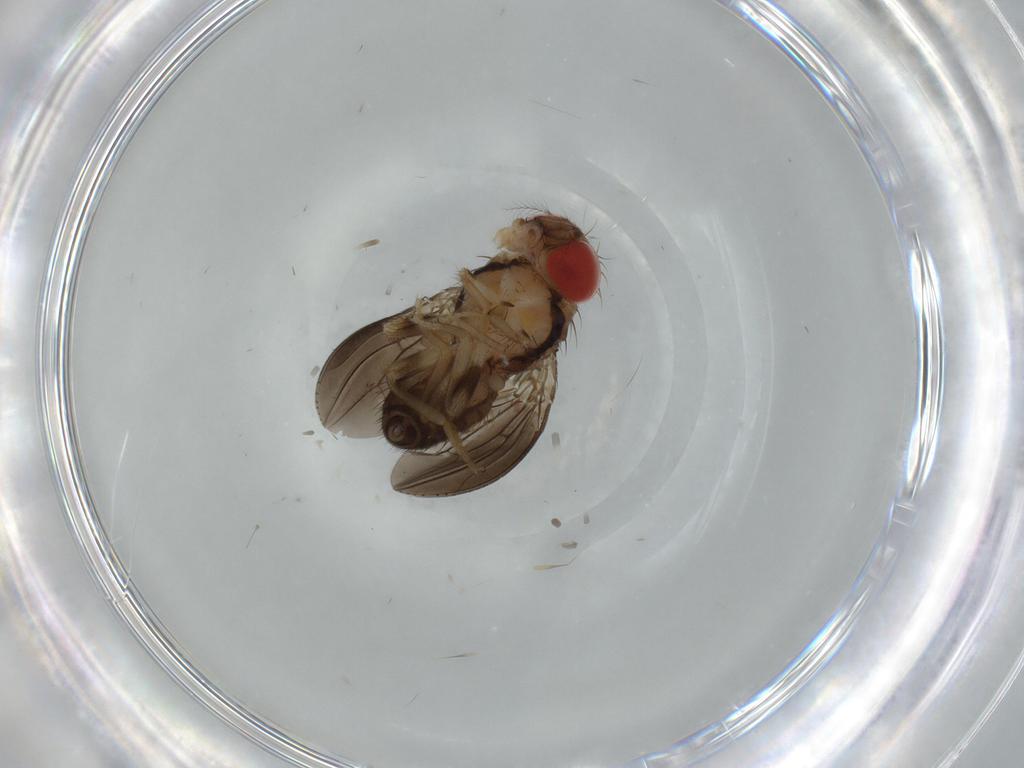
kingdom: Animalia
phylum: Arthropoda
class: Insecta
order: Diptera
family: Drosophilidae
